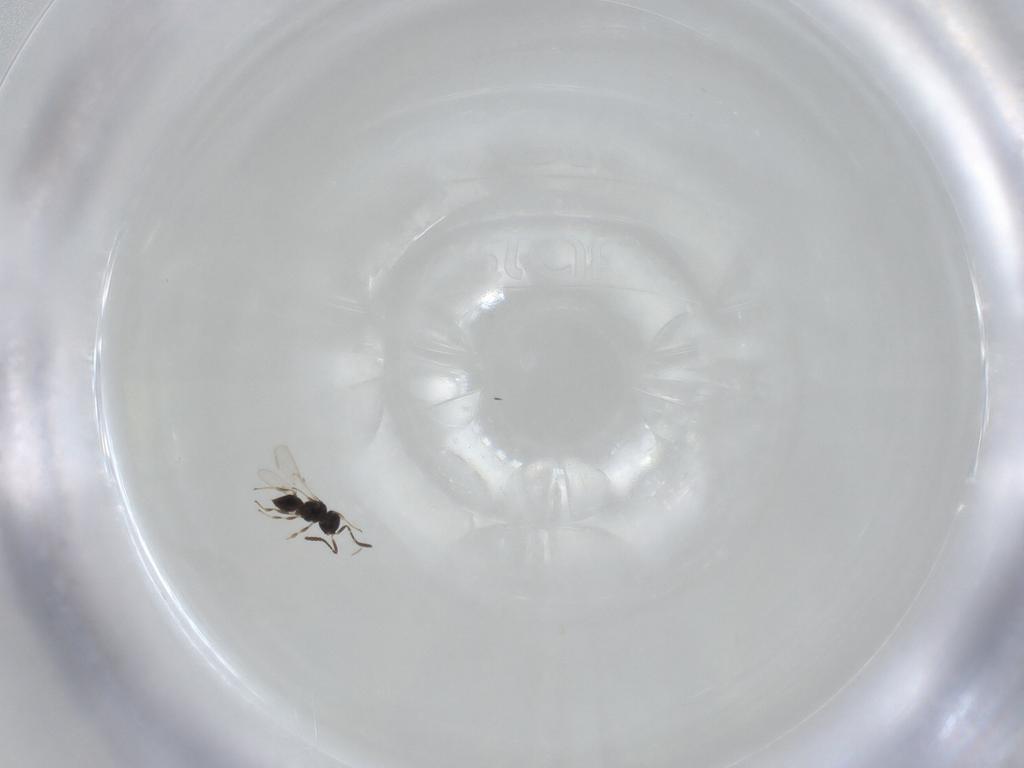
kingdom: Animalia
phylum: Arthropoda
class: Insecta
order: Hymenoptera
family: Scelionidae
